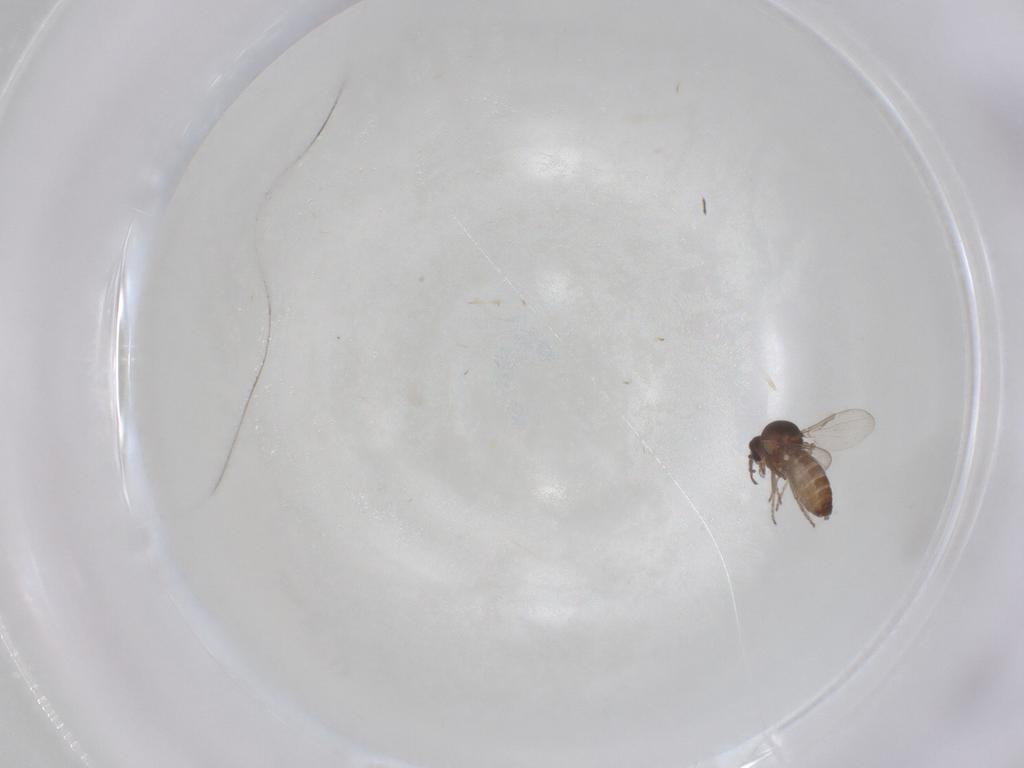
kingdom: Animalia
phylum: Arthropoda
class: Insecta
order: Diptera
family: Ceratopogonidae
